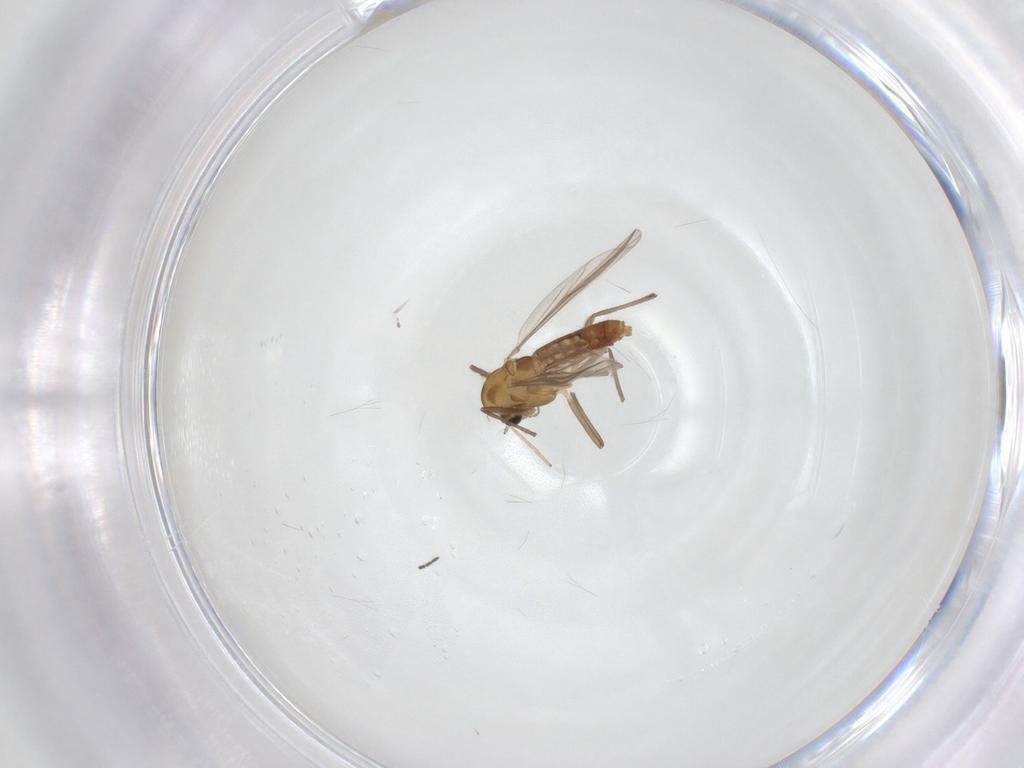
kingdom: Animalia
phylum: Arthropoda
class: Insecta
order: Diptera
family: Sciaridae
